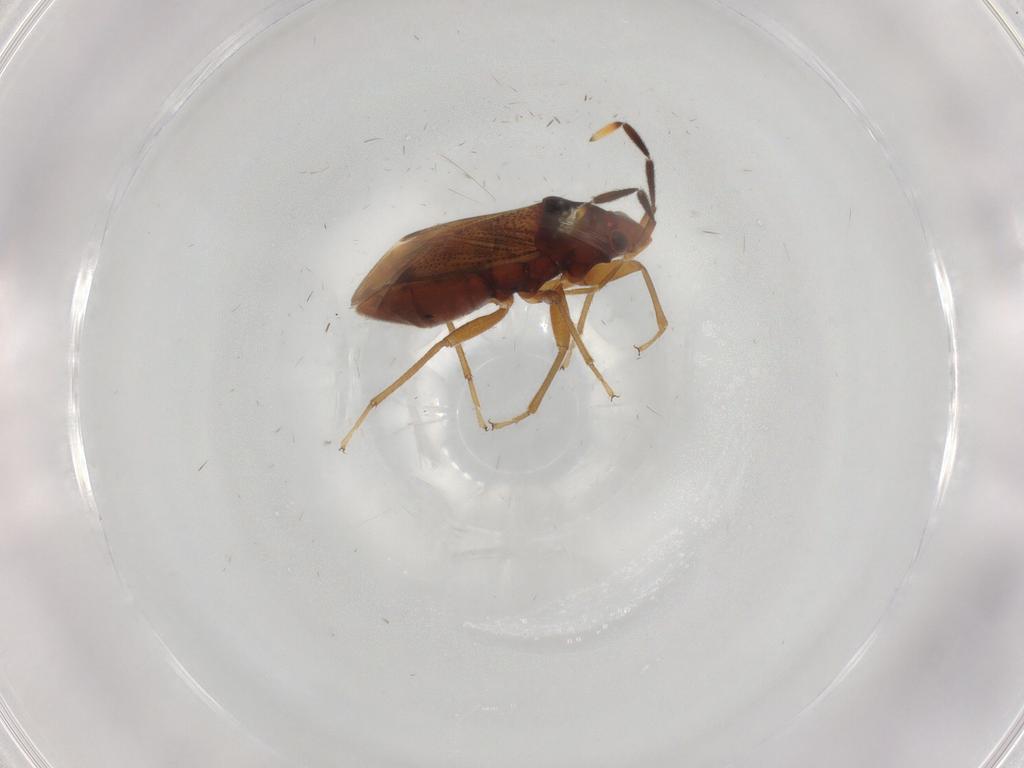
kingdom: Animalia
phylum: Arthropoda
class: Insecta
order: Hemiptera
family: Rhyparochromidae
